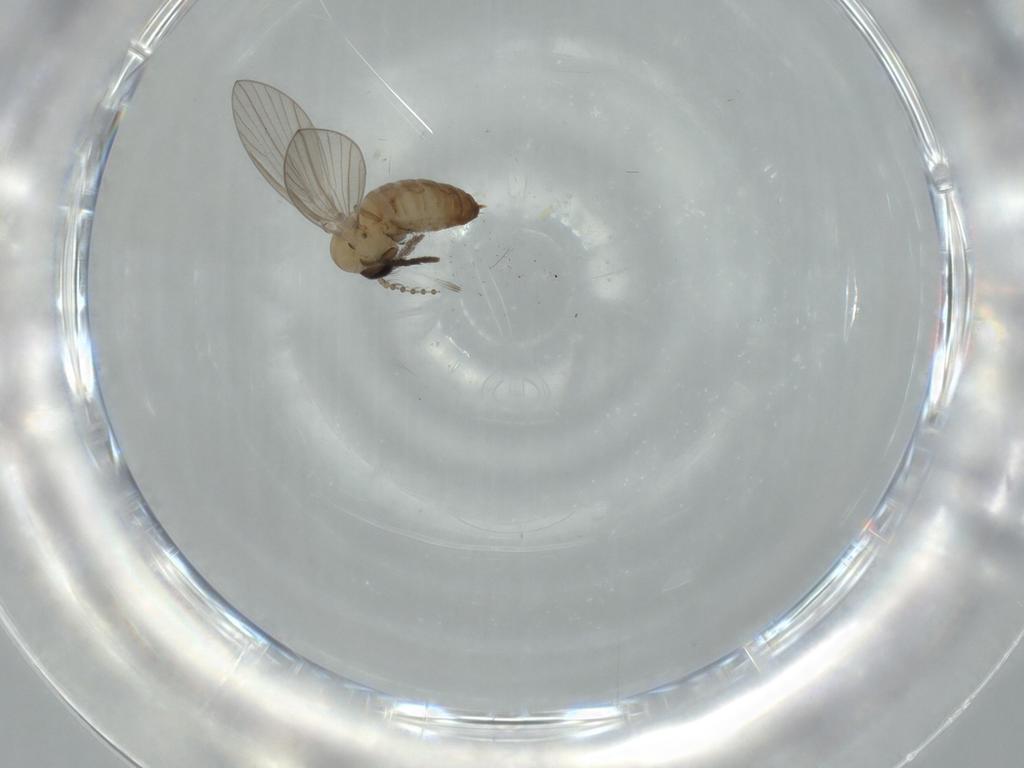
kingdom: Animalia
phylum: Arthropoda
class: Insecta
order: Diptera
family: Psychodidae
